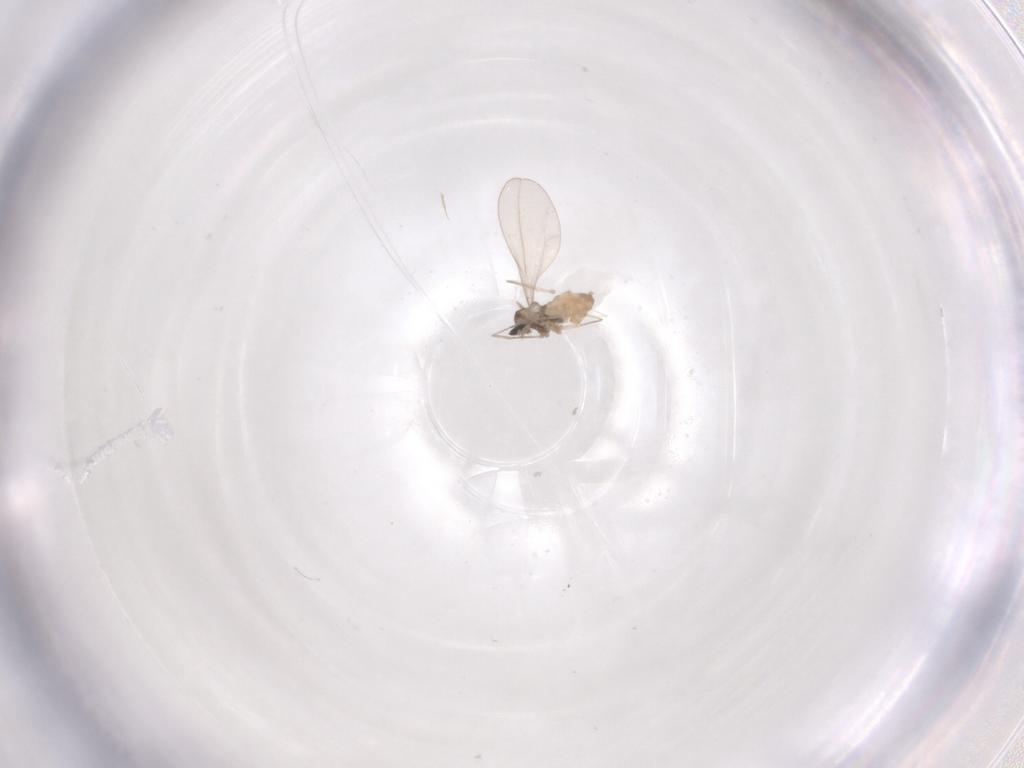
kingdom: Animalia
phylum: Arthropoda
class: Insecta
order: Diptera
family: Cecidomyiidae
